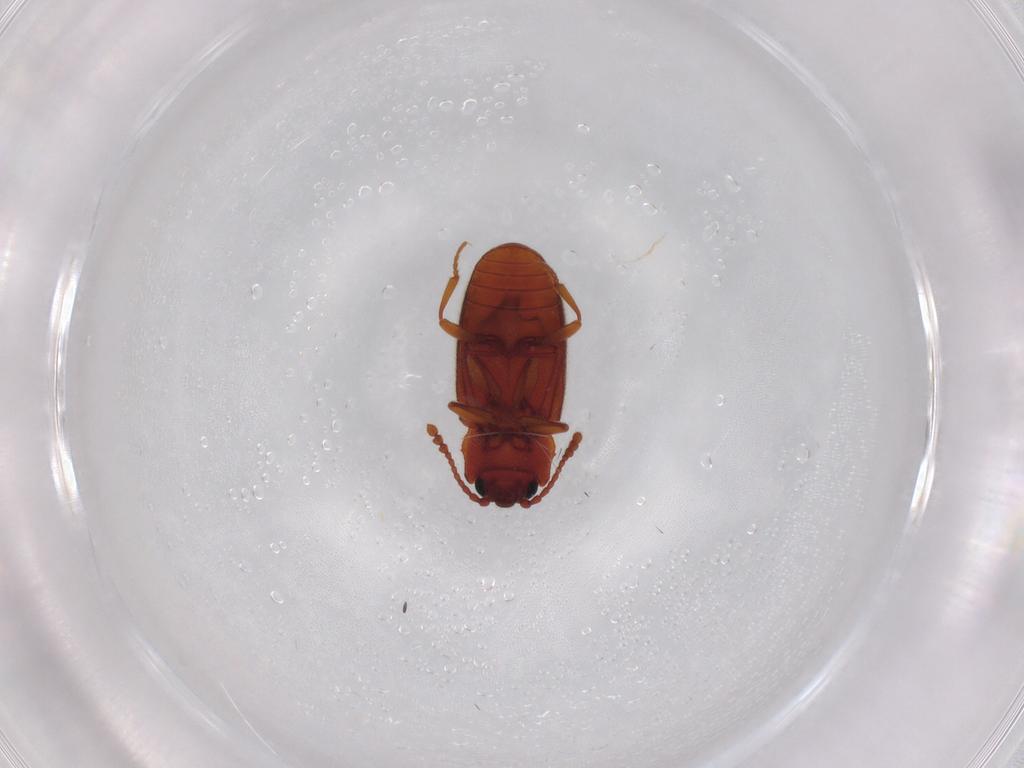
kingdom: Animalia
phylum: Arthropoda
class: Insecta
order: Coleoptera
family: Cryptophagidae
